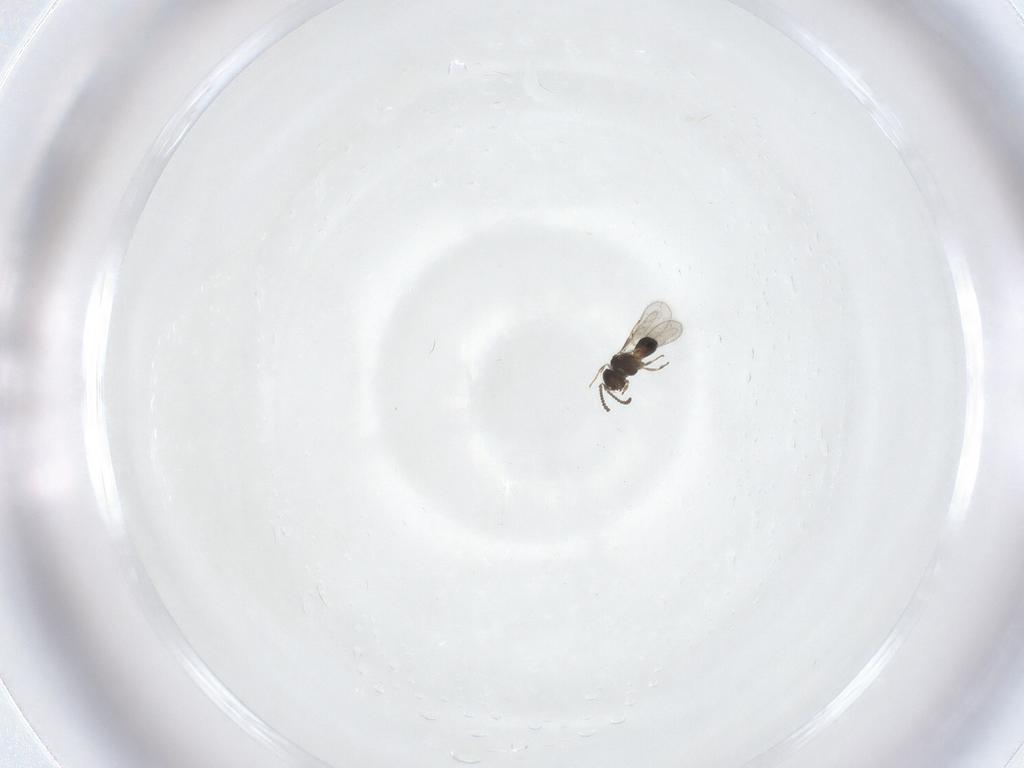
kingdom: Animalia
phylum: Arthropoda
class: Insecta
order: Hymenoptera
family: Scelionidae
